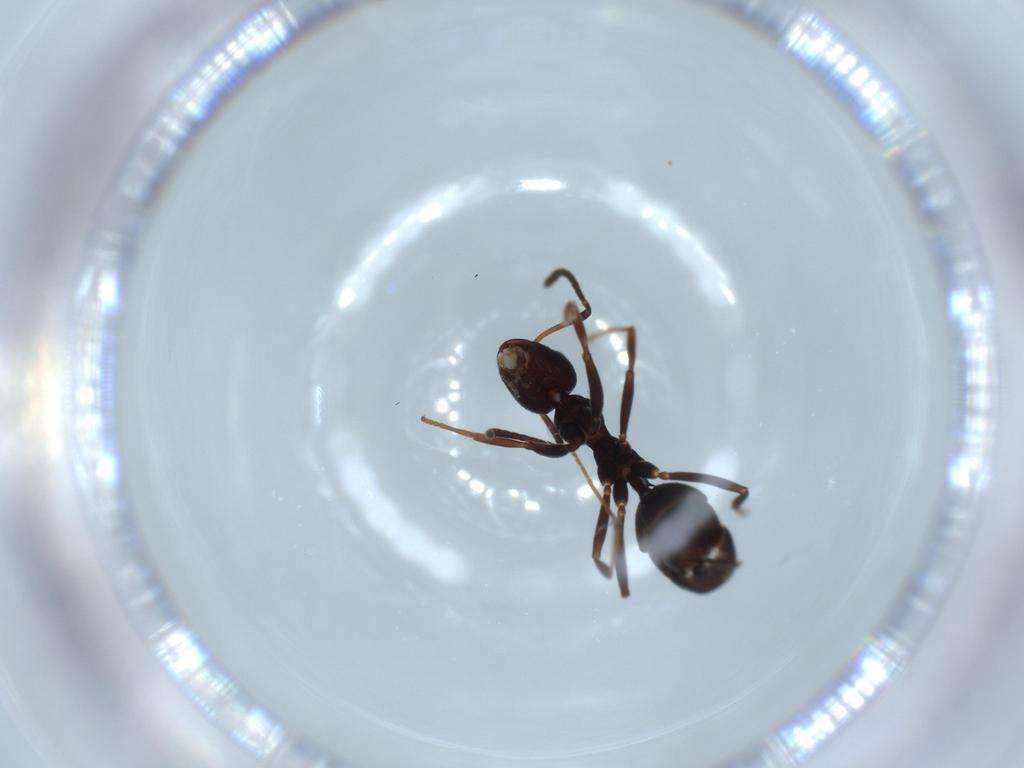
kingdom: Animalia
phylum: Arthropoda
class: Insecta
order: Hymenoptera
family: Formicidae
